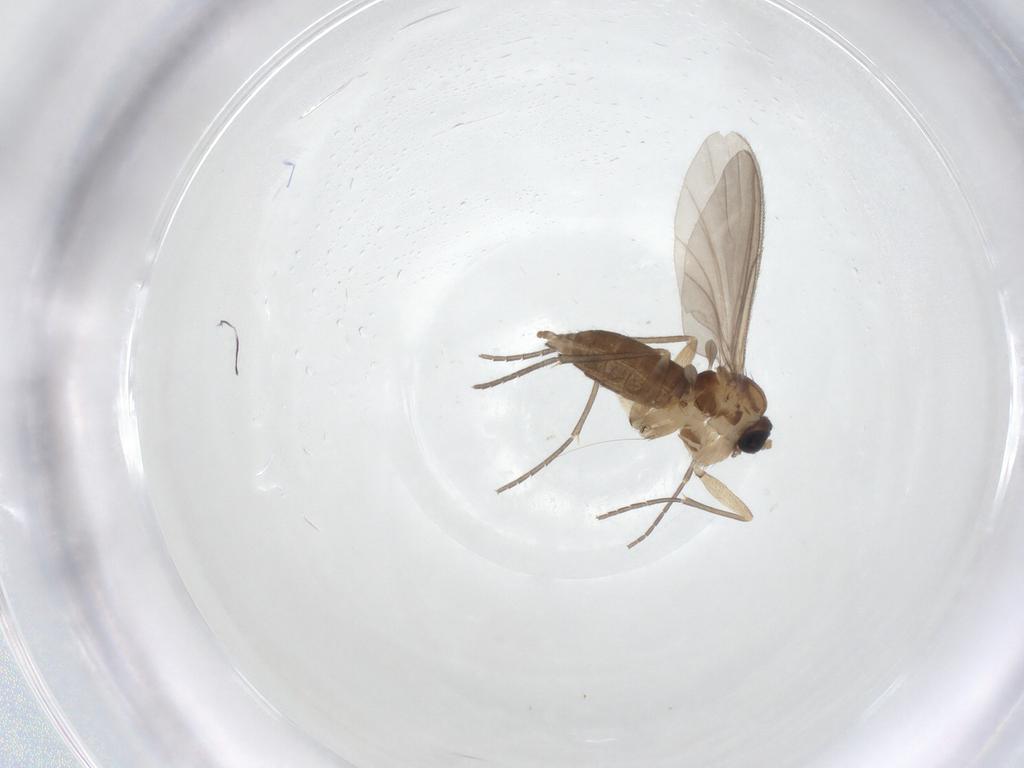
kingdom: Animalia
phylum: Arthropoda
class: Insecta
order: Diptera
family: Sciaridae
